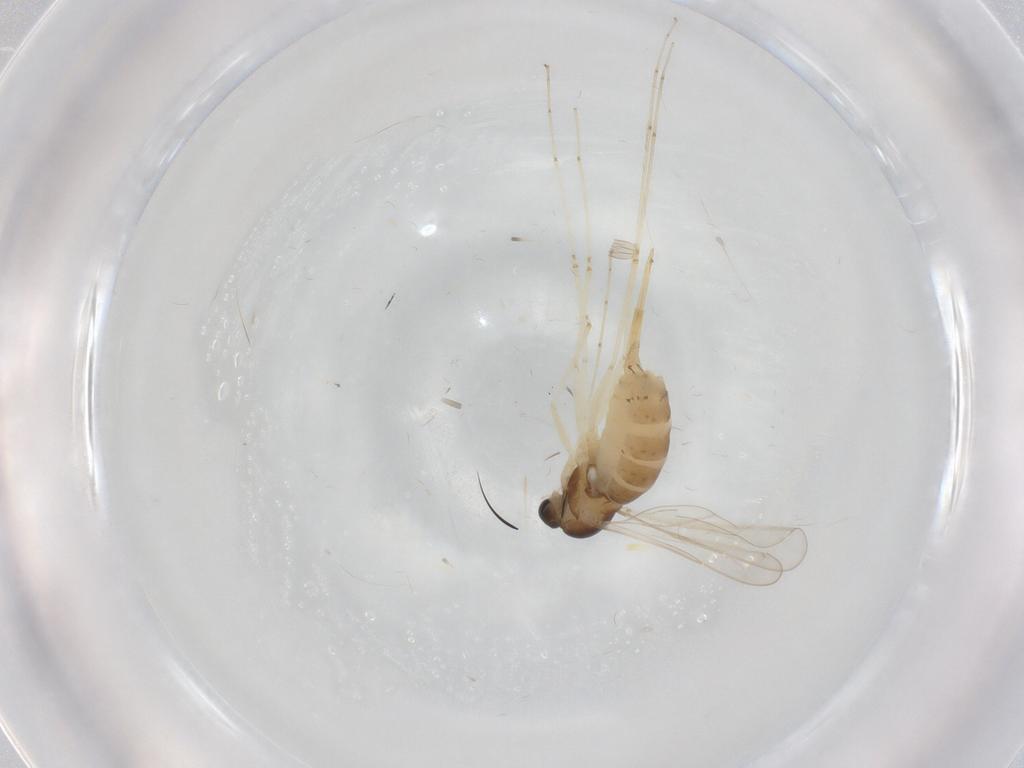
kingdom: Animalia
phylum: Arthropoda
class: Insecta
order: Diptera
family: Cecidomyiidae
